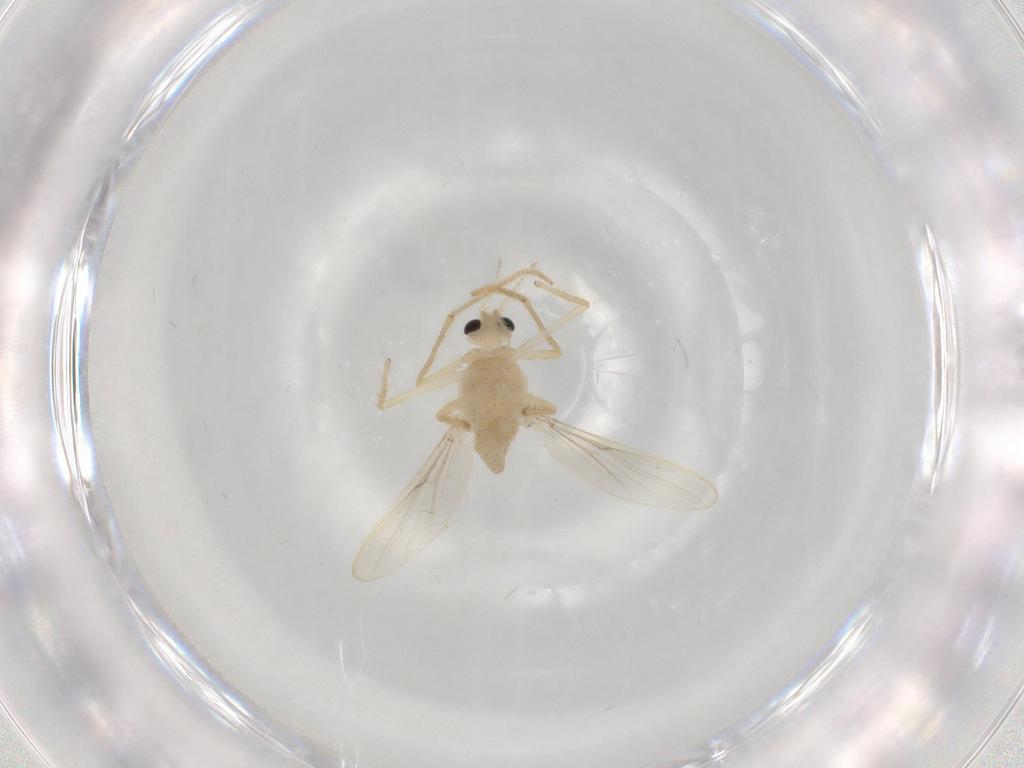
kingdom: Animalia
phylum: Arthropoda
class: Insecta
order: Diptera
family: Chironomidae
